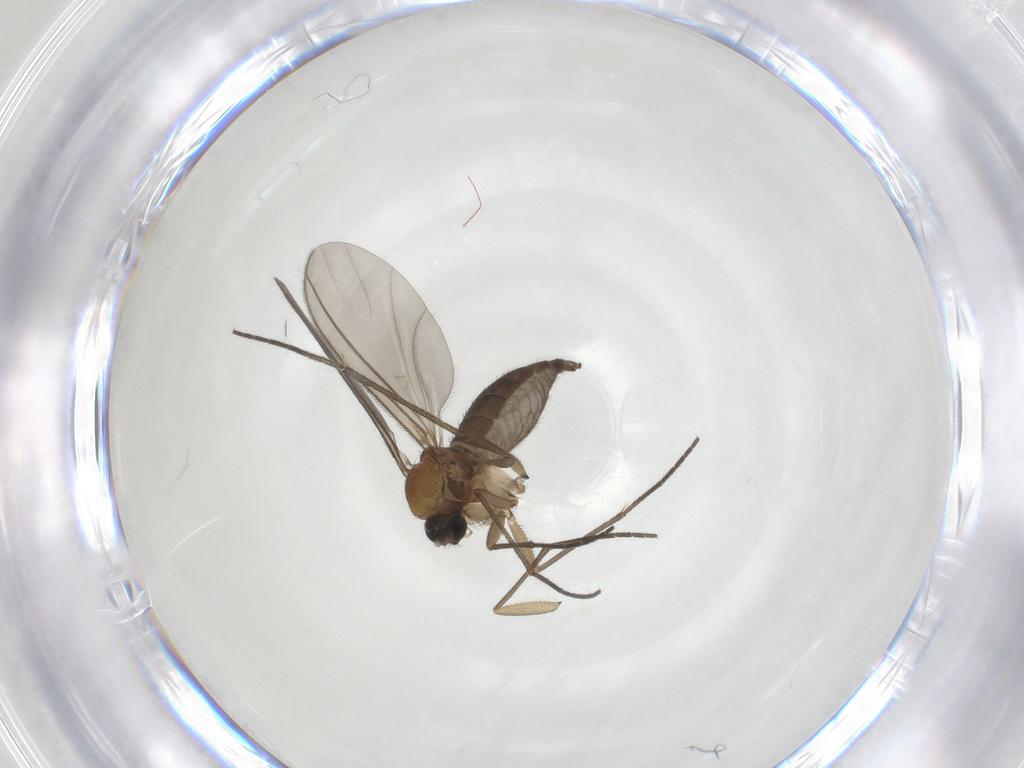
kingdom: Animalia
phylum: Arthropoda
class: Insecta
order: Diptera
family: Sciaridae
